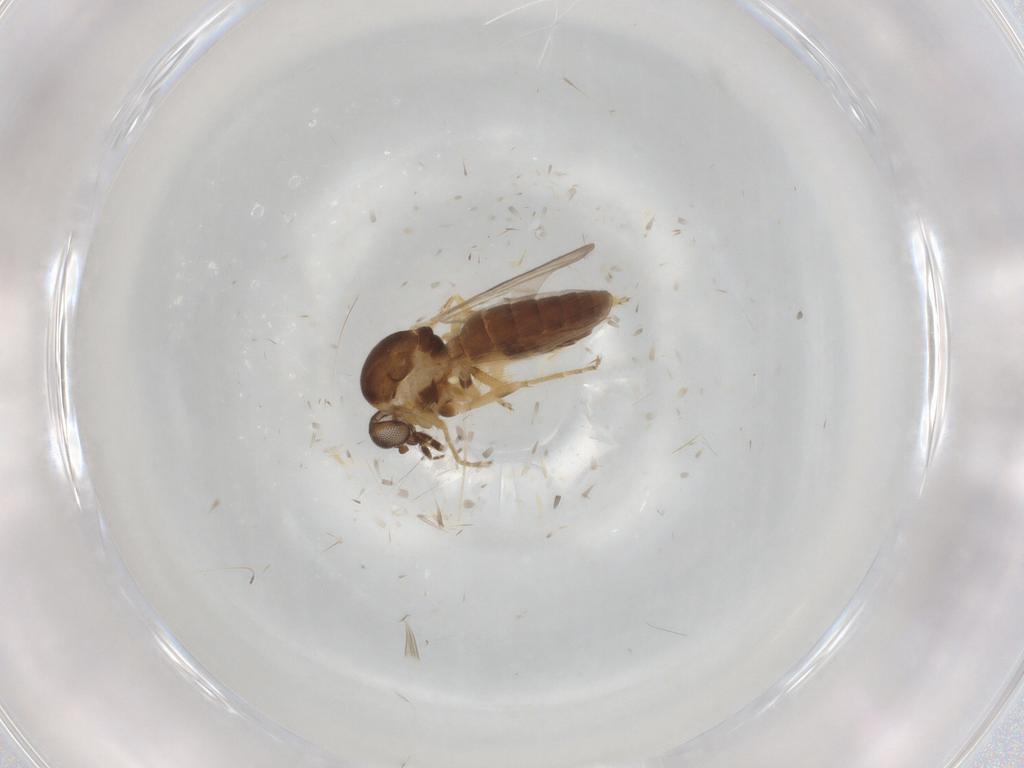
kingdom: Animalia
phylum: Arthropoda
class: Insecta
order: Diptera
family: Ceratopogonidae
